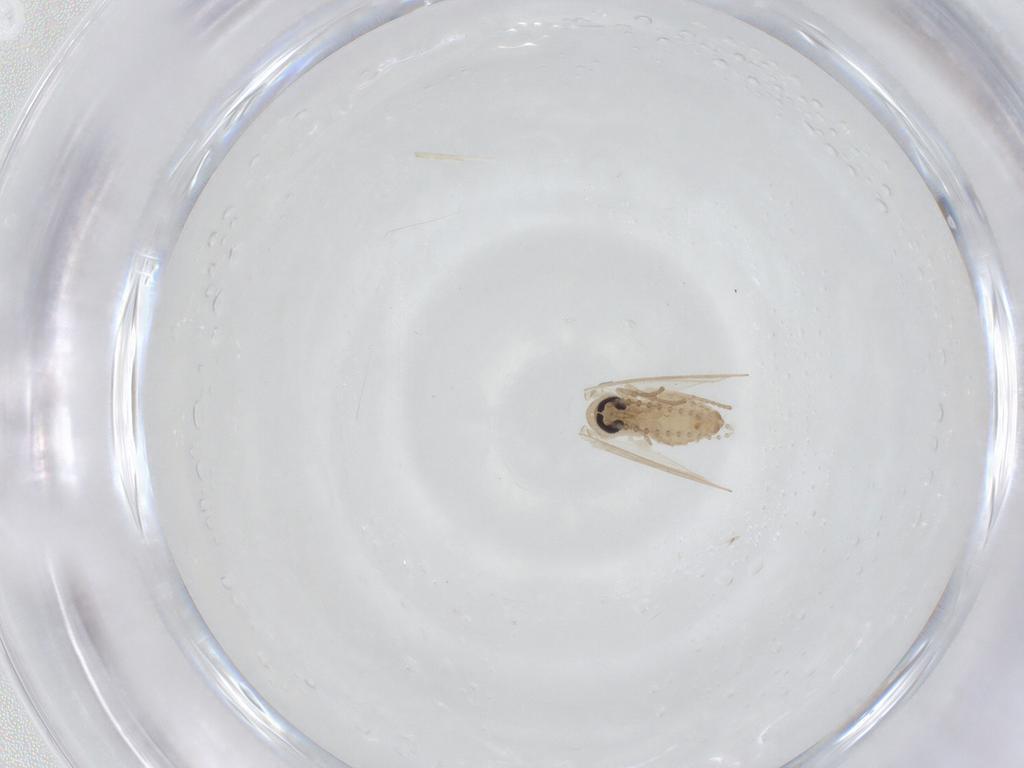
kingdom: Animalia
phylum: Arthropoda
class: Insecta
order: Diptera
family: Psychodidae
